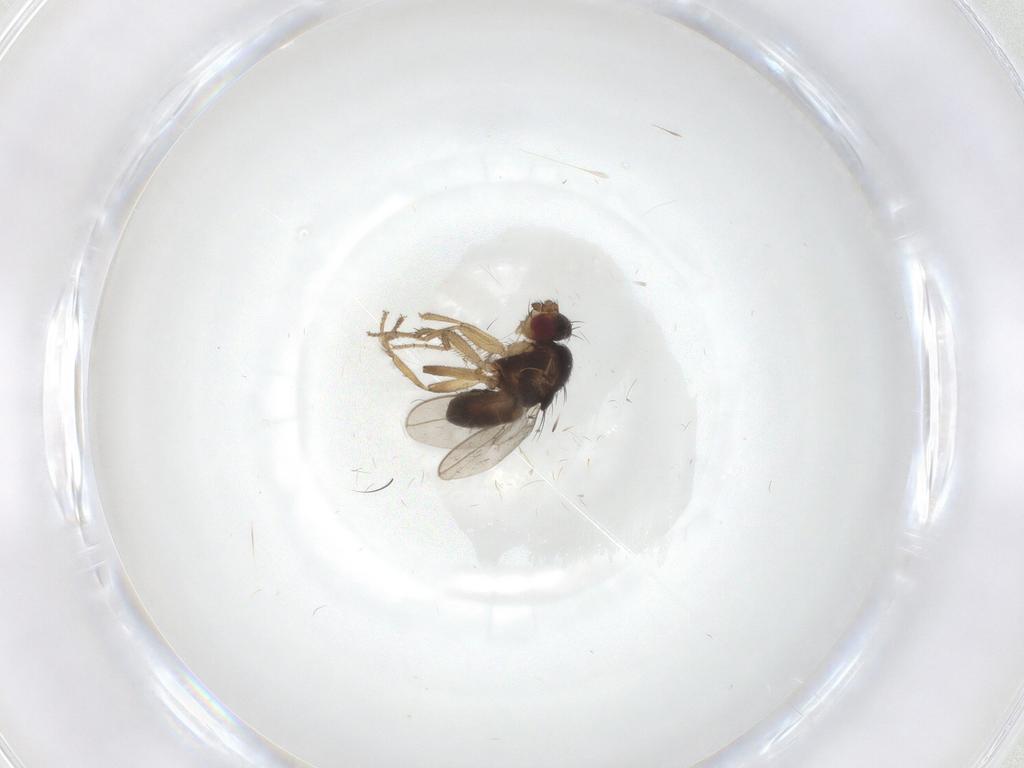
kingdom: Animalia
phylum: Arthropoda
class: Insecta
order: Diptera
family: Sphaeroceridae
